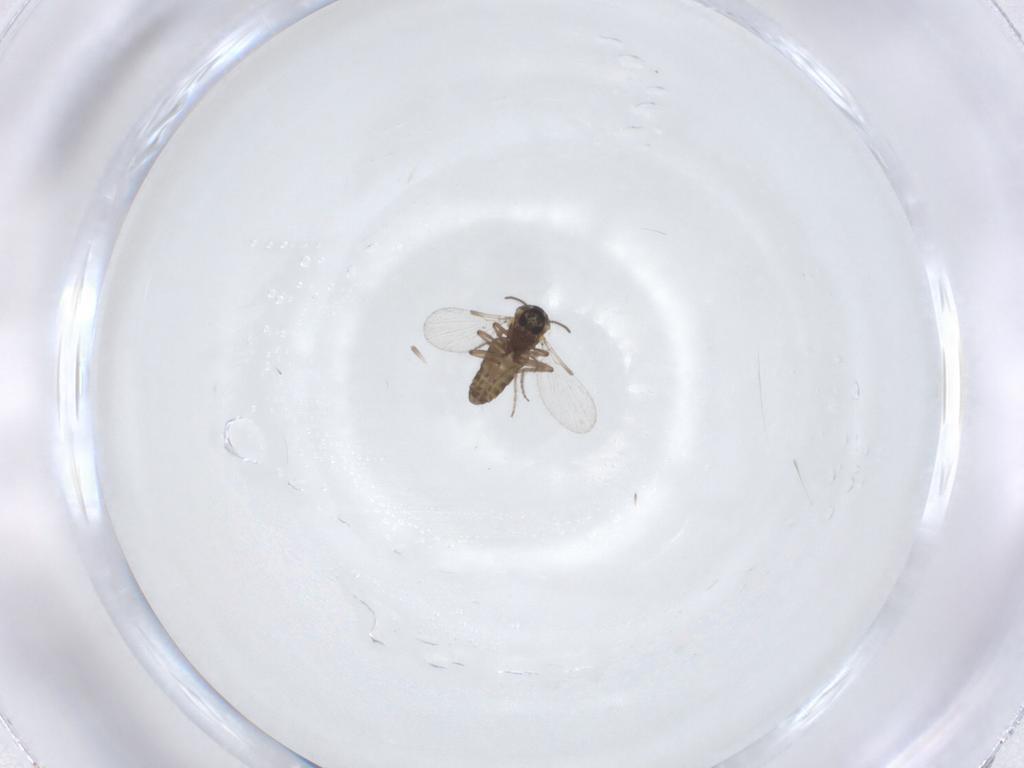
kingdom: Animalia
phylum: Arthropoda
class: Insecta
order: Diptera
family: Ceratopogonidae
